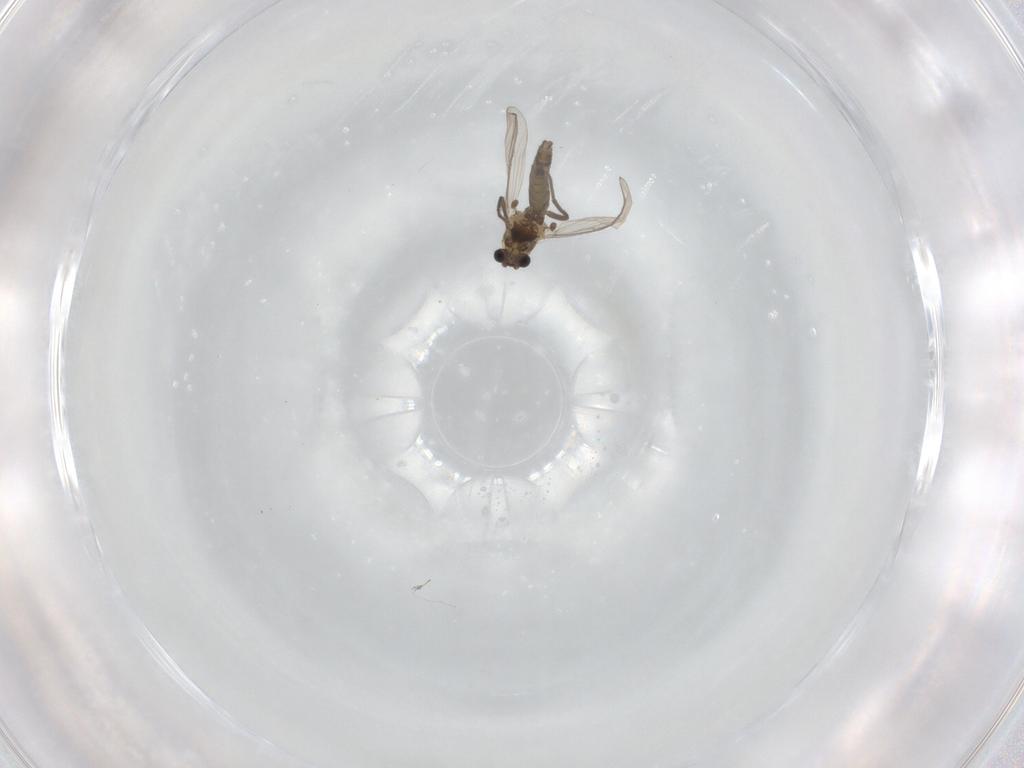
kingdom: Animalia
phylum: Arthropoda
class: Insecta
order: Diptera
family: Chironomidae
